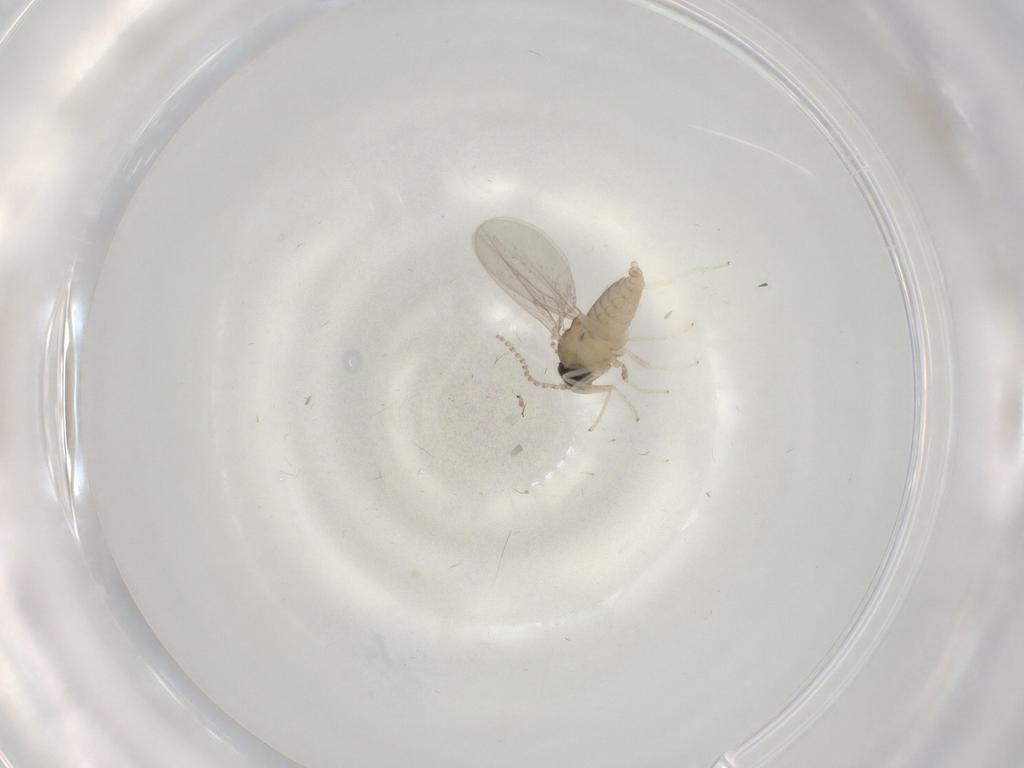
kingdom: Animalia
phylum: Arthropoda
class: Insecta
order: Diptera
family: Cecidomyiidae
